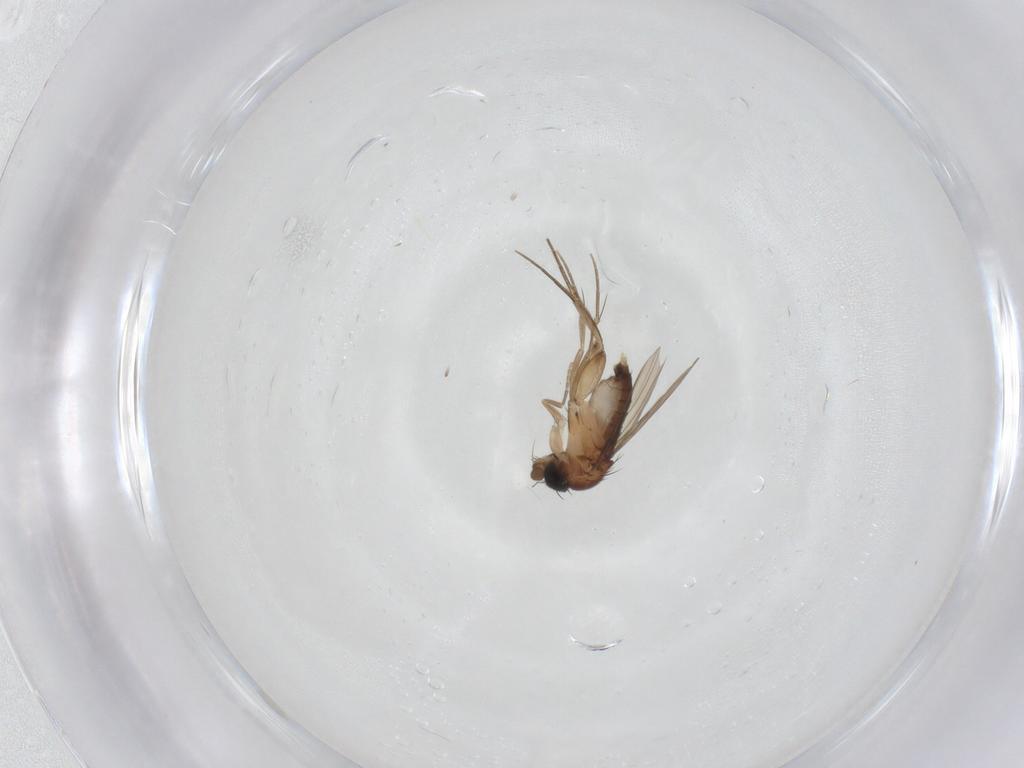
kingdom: Animalia
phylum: Arthropoda
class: Insecta
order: Diptera
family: Phoridae
